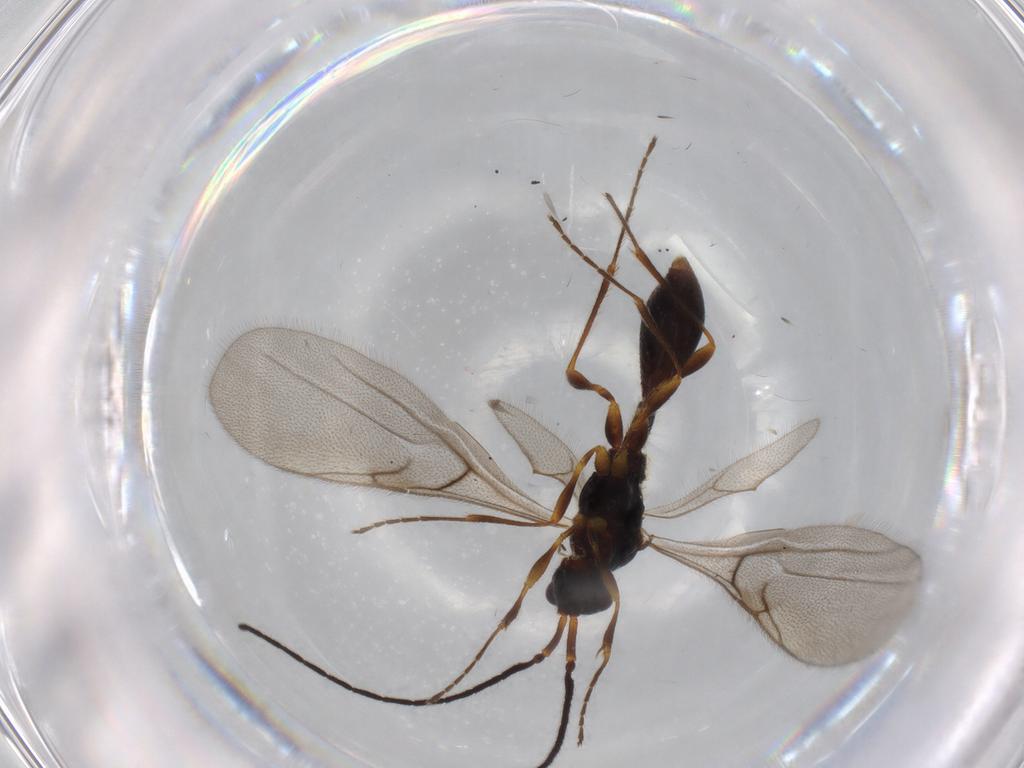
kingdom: Animalia
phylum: Arthropoda
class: Insecta
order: Hymenoptera
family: Diapriidae
